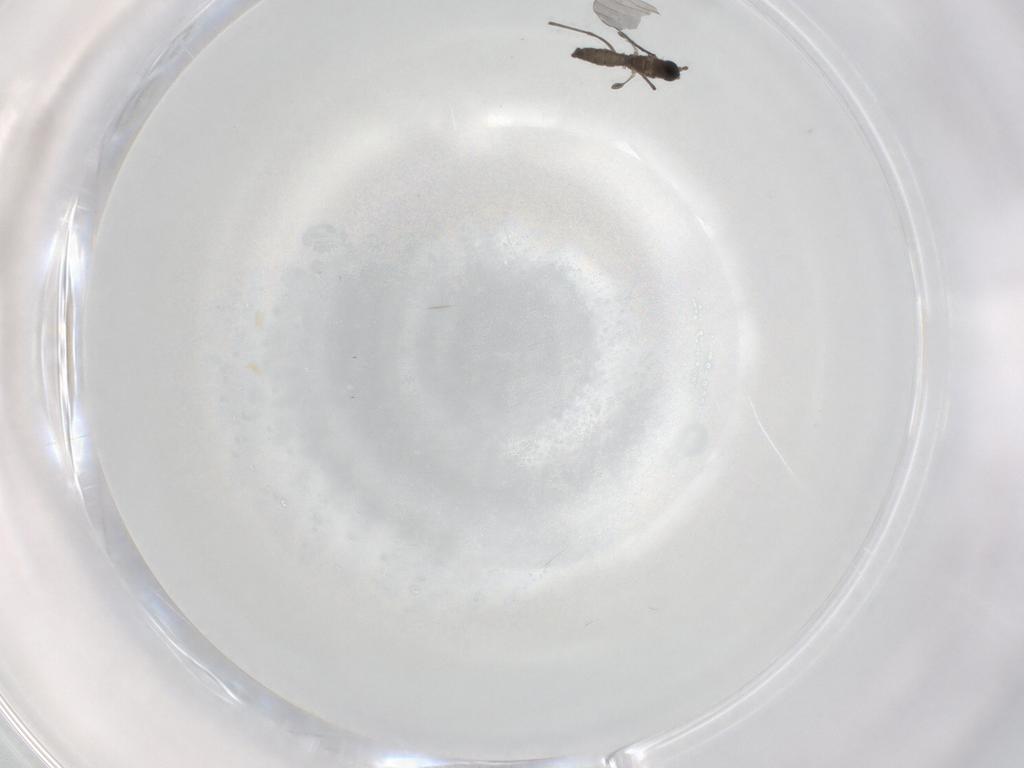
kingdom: Animalia
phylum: Arthropoda
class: Insecta
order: Diptera
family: Sciaridae
